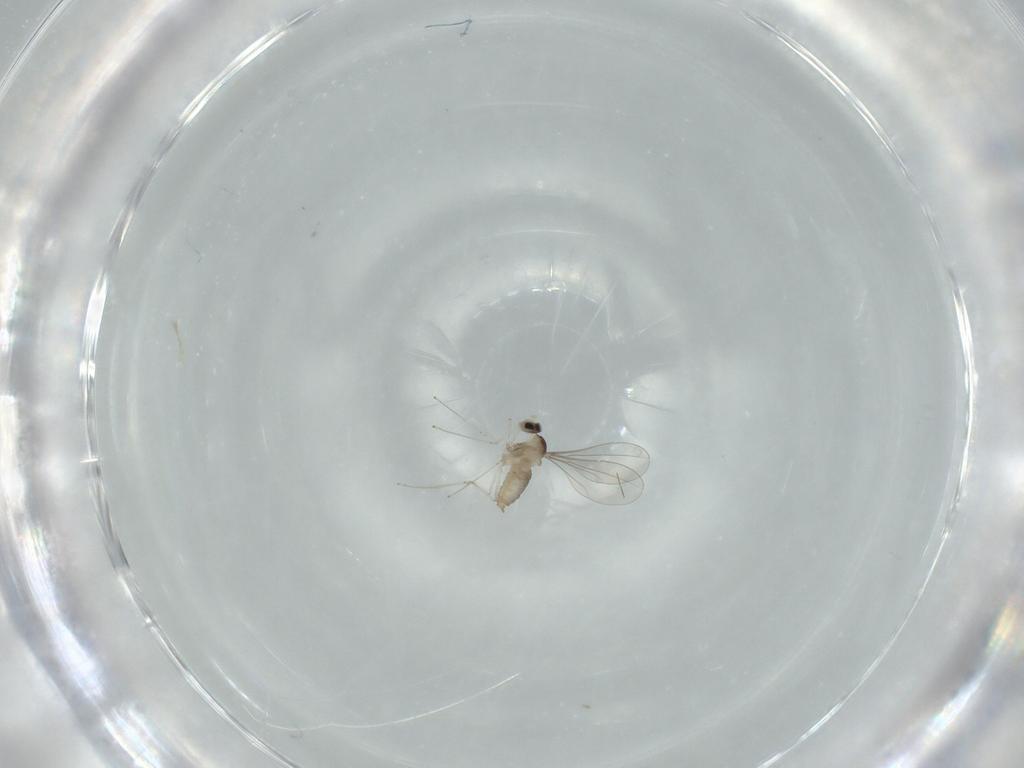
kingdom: Animalia
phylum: Arthropoda
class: Insecta
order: Diptera
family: Cecidomyiidae
